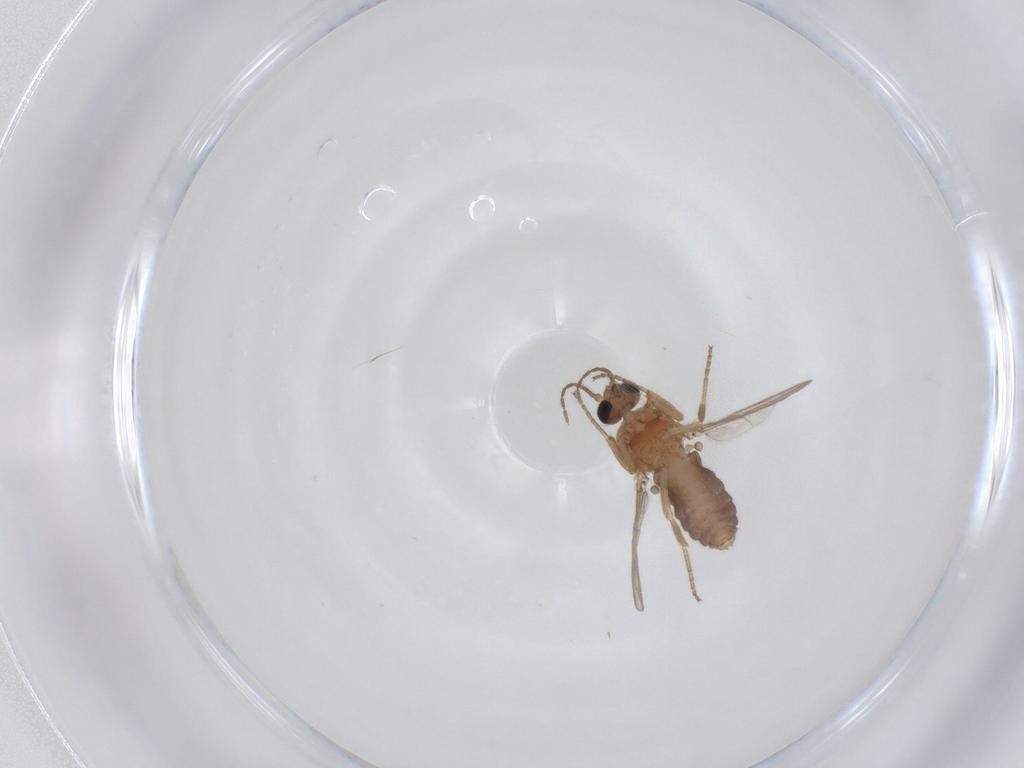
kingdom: Animalia
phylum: Arthropoda
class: Insecta
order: Diptera
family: Ceratopogonidae
